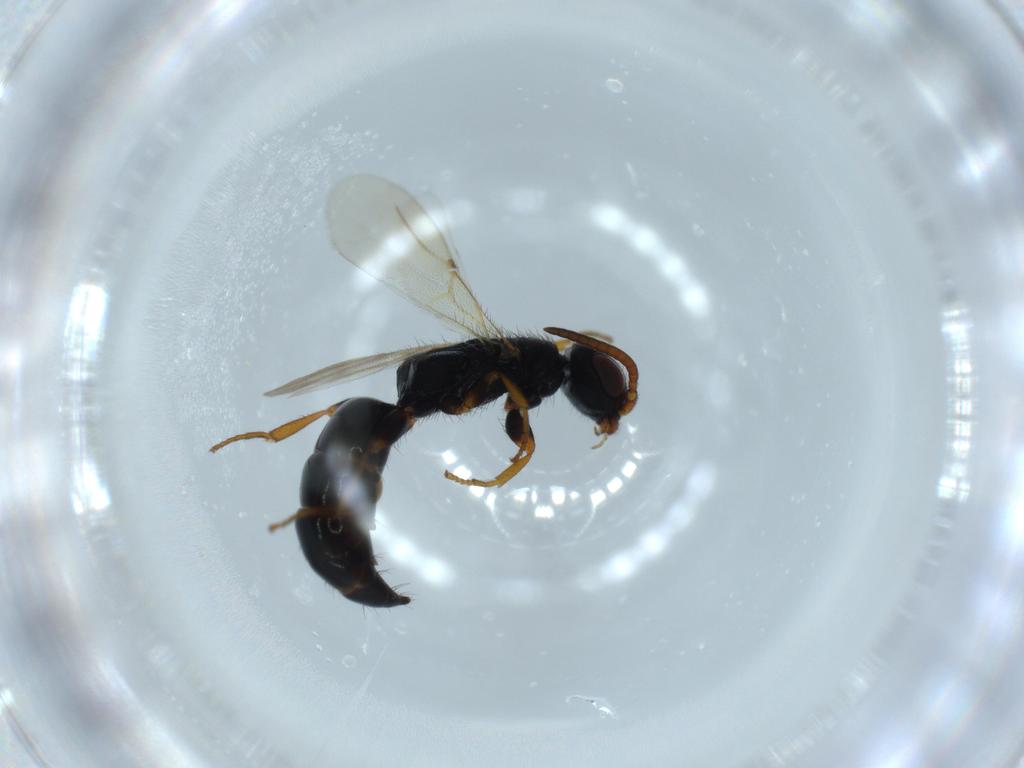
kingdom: Animalia
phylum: Arthropoda
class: Insecta
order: Hymenoptera
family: Bethylidae
